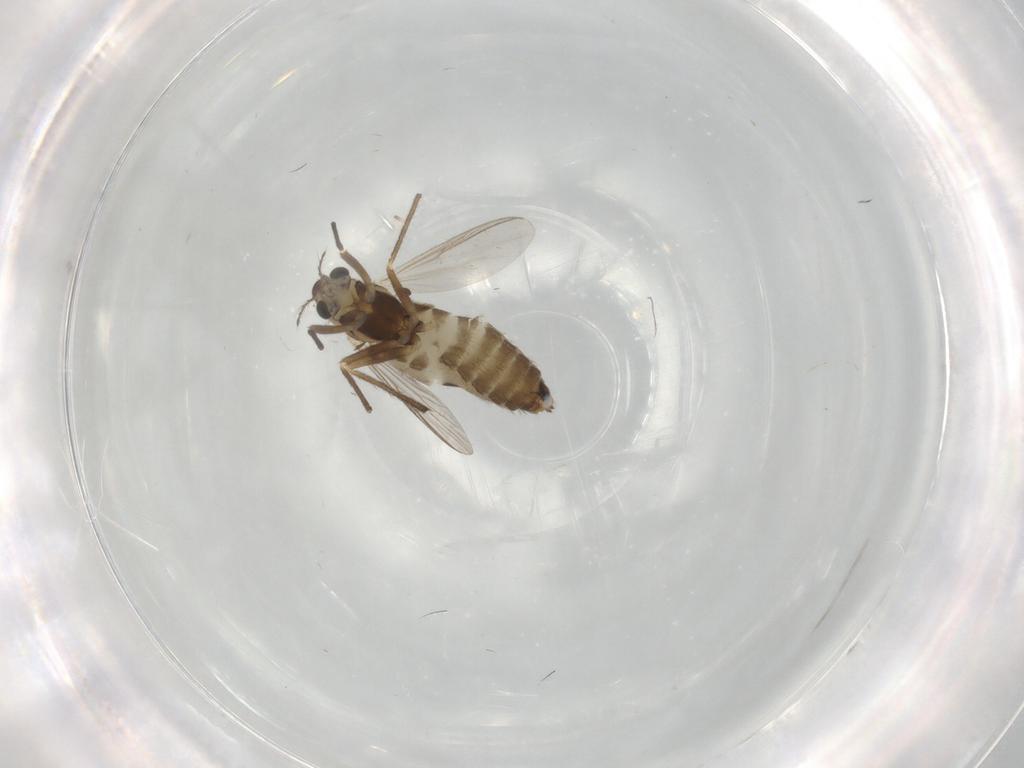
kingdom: Animalia
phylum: Arthropoda
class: Insecta
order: Diptera
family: Chironomidae
